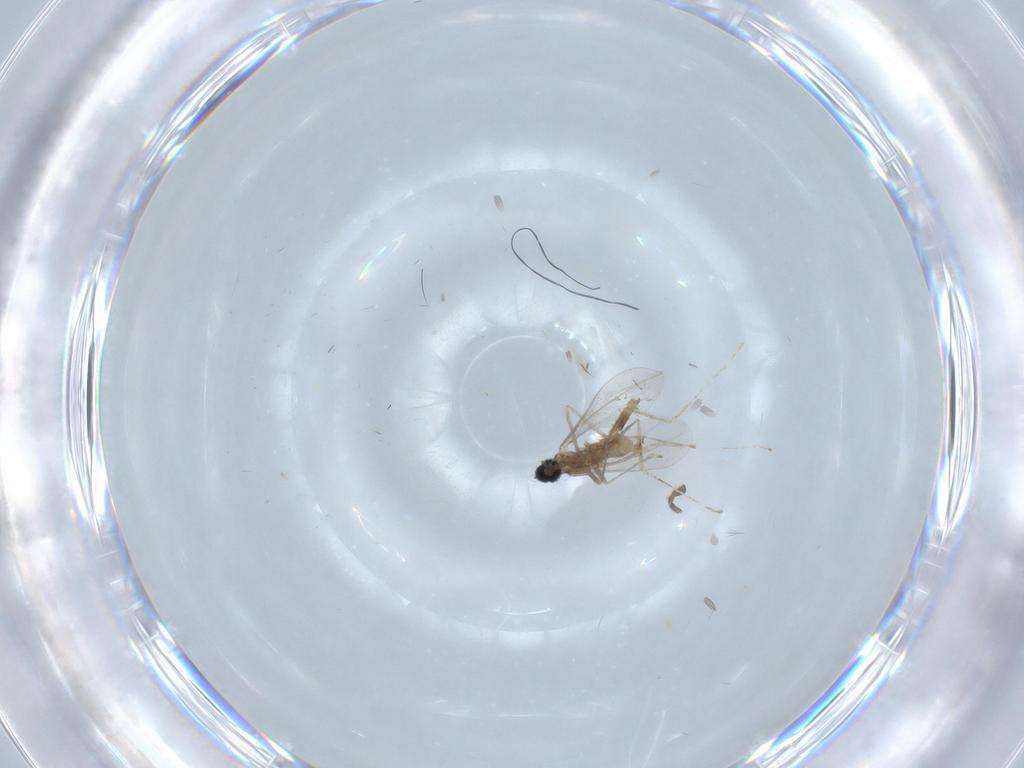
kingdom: Animalia
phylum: Arthropoda
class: Insecta
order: Diptera
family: Cecidomyiidae
